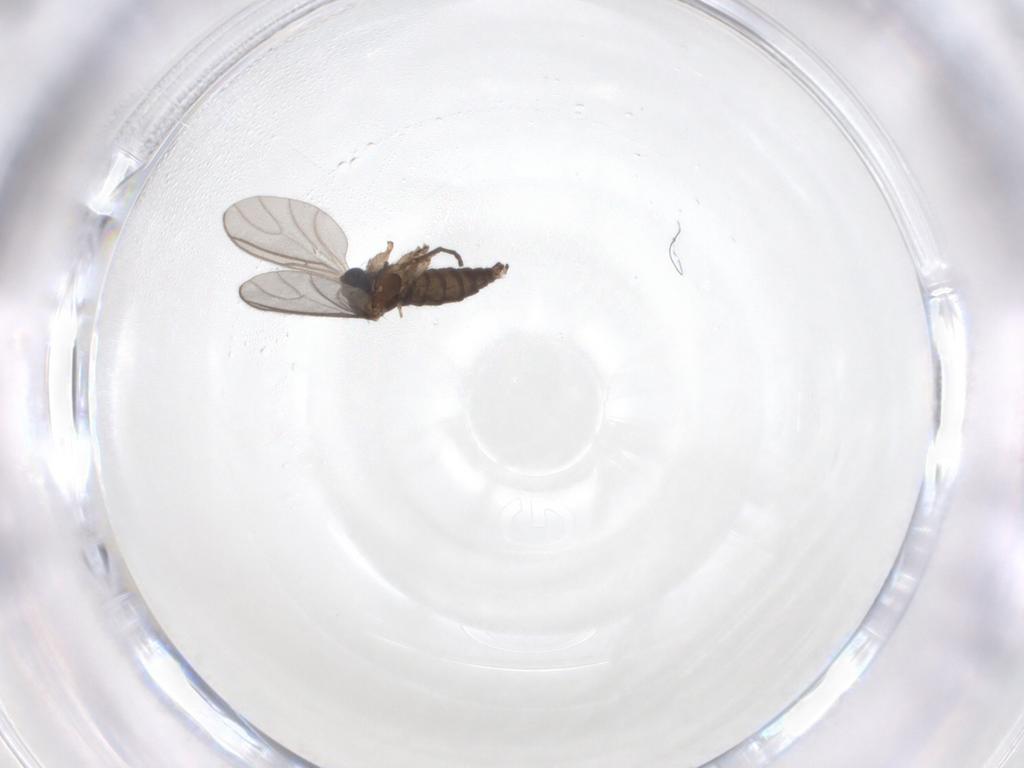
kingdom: Animalia
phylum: Arthropoda
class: Insecta
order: Diptera
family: Sciaridae
